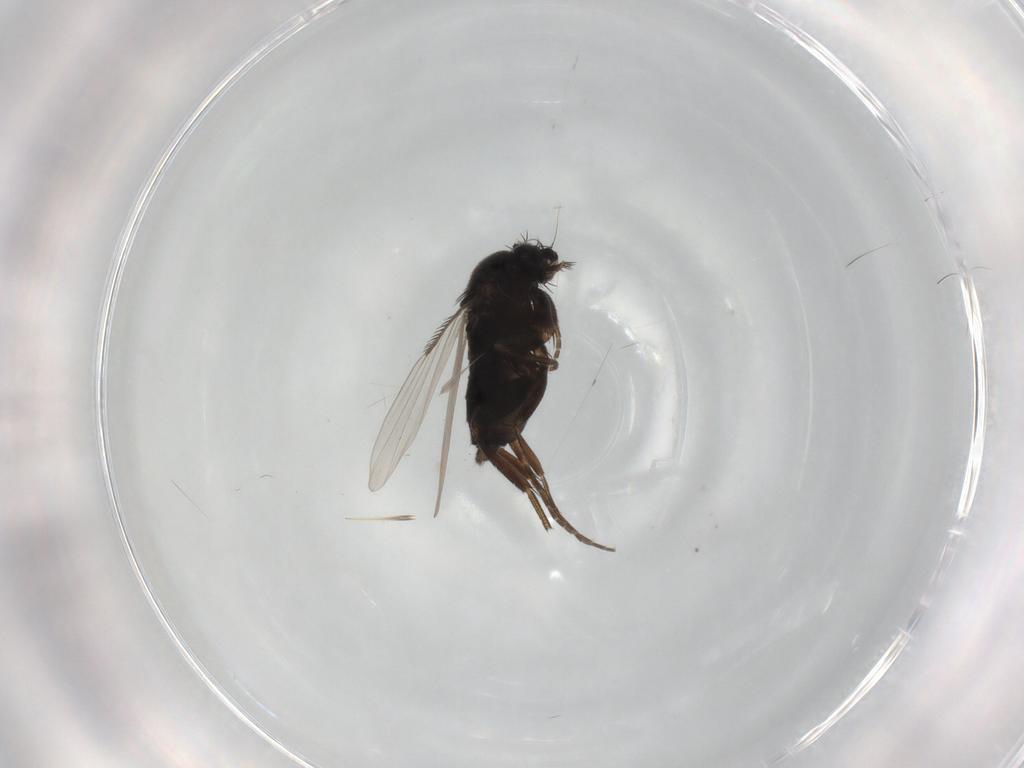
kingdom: Animalia
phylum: Arthropoda
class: Insecta
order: Diptera
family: Phoridae
